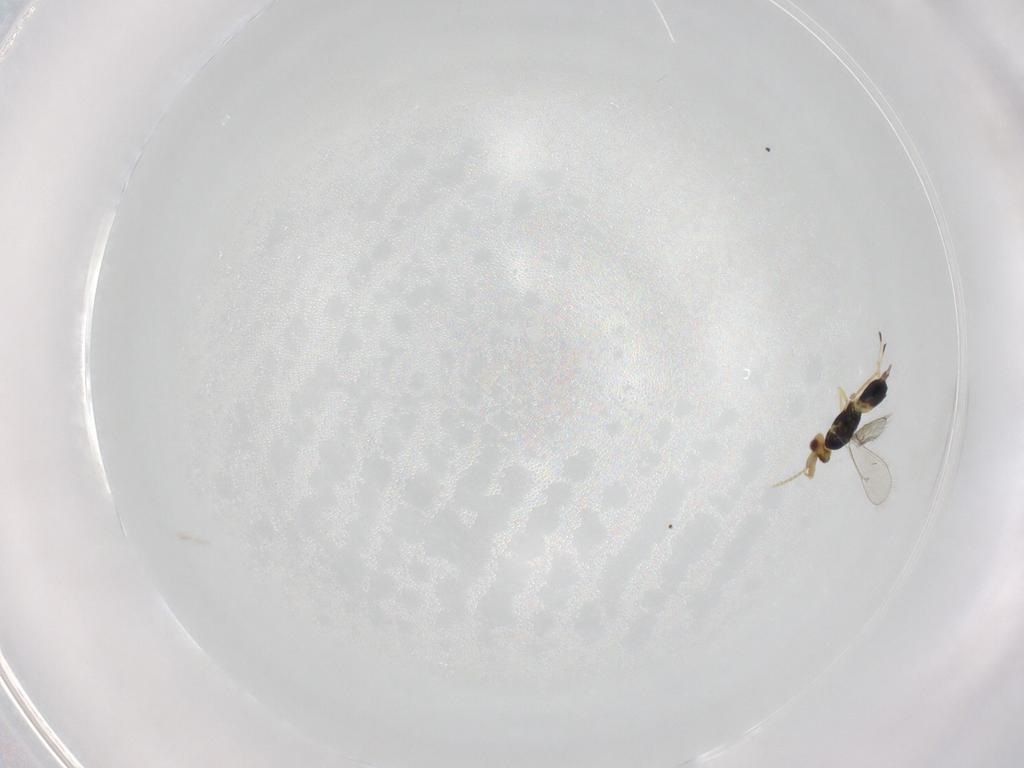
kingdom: Animalia
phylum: Arthropoda
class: Insecta
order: Hymenoptera
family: Eulophidae
